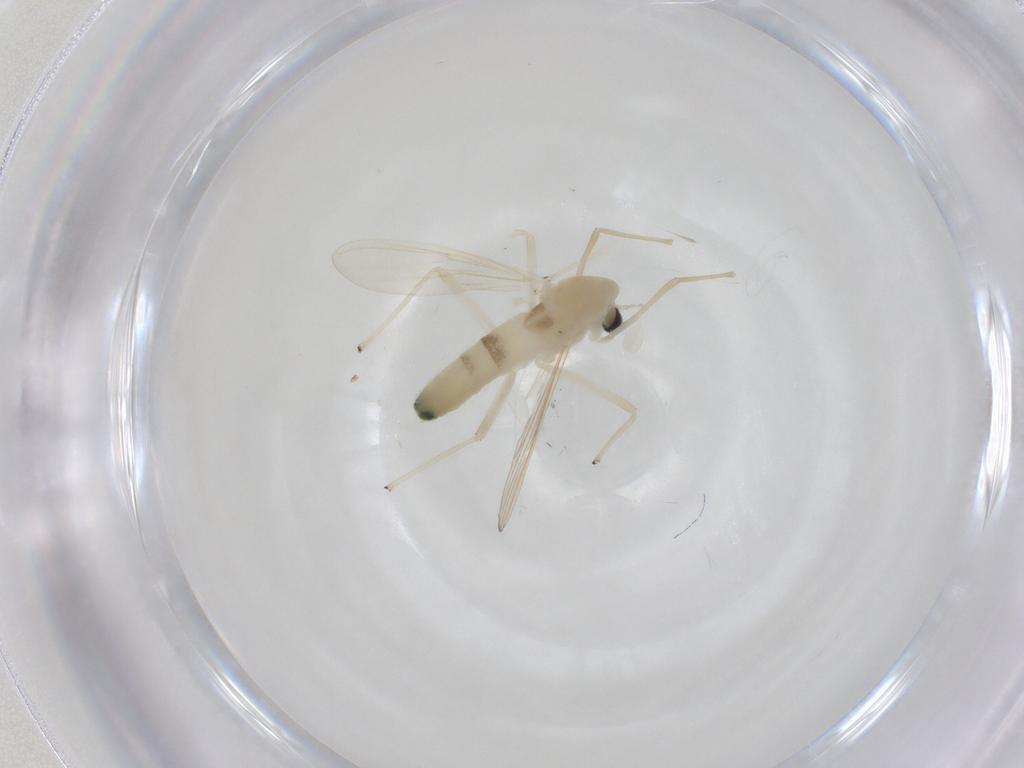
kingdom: Animalia
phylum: Arthropoda
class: Insecta
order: Diptera
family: Chironomidae
